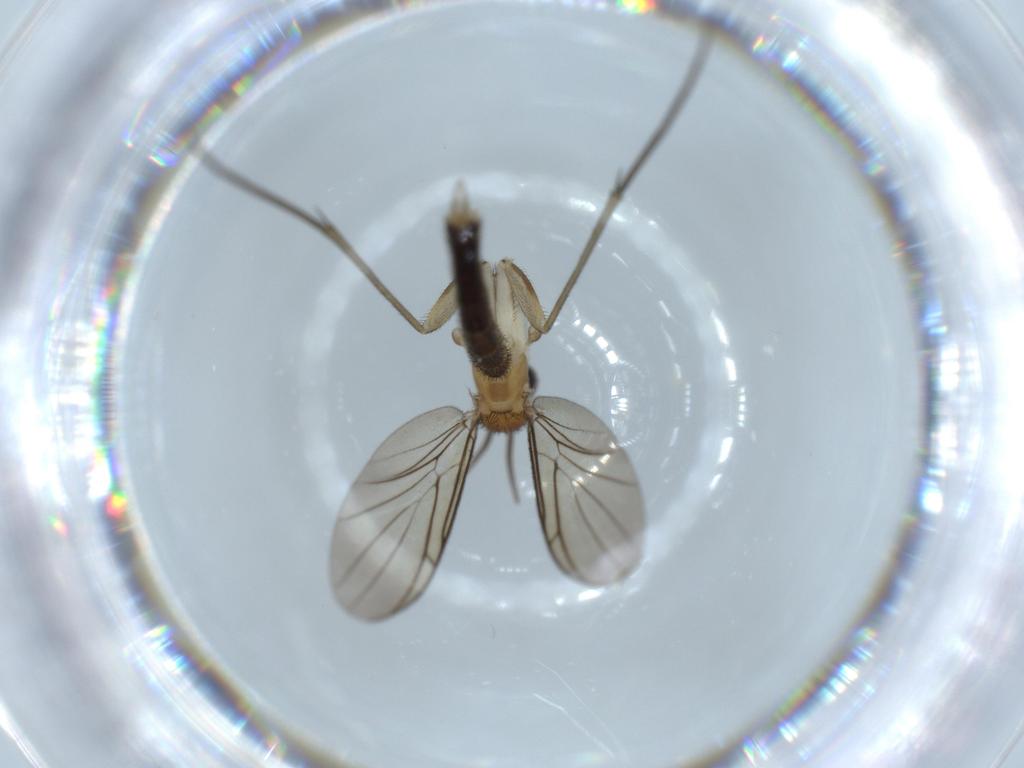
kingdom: Animalia
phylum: Arthropoda
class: Insecta
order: Diptera
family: Keroplatidae
